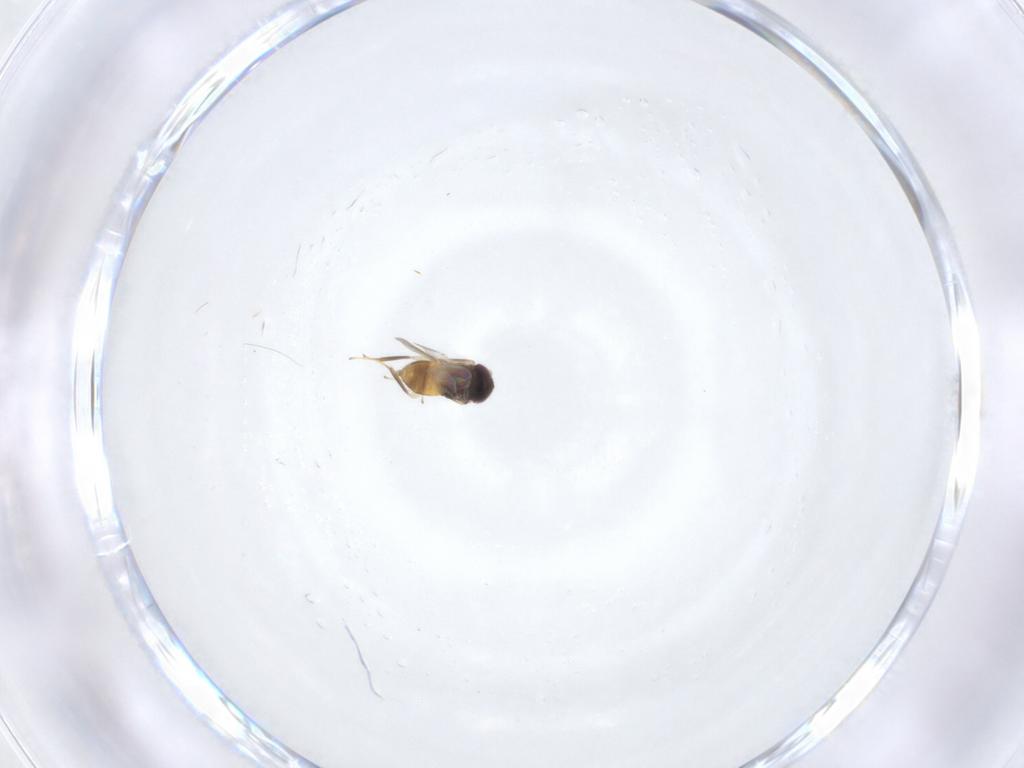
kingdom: Animalia
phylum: Arthropoda
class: Insecta
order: Hymenoptera
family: Aphelinidae
